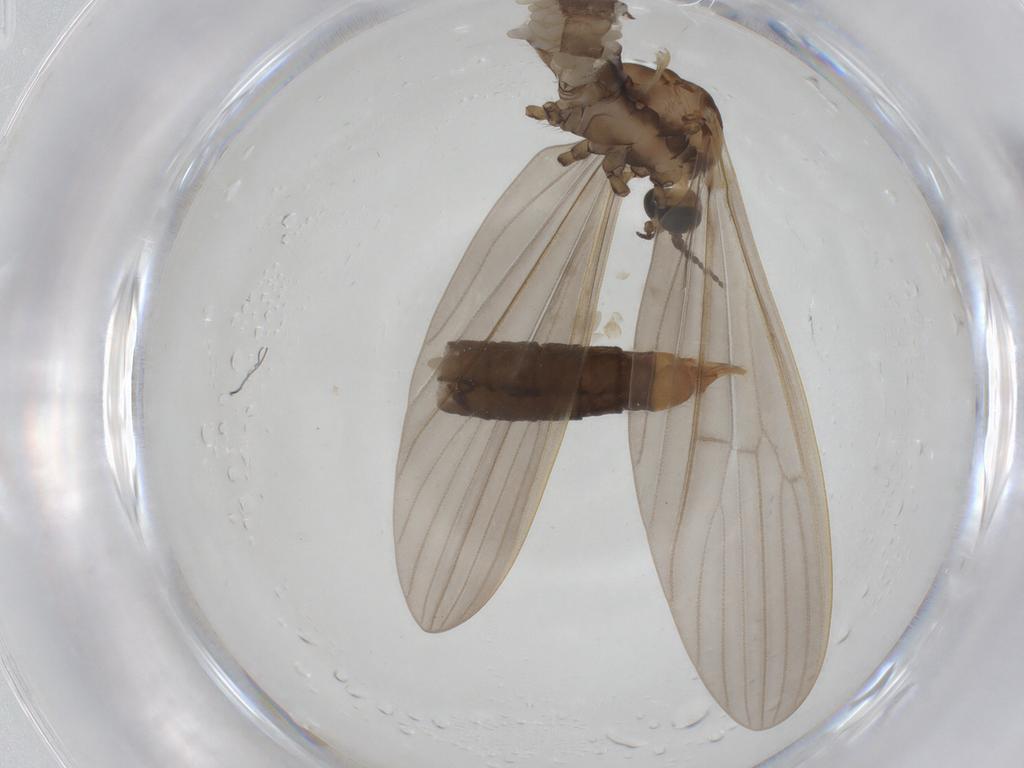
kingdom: Animalia
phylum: Arthropoda
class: Insecta
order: Diptera
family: Limoniidae
